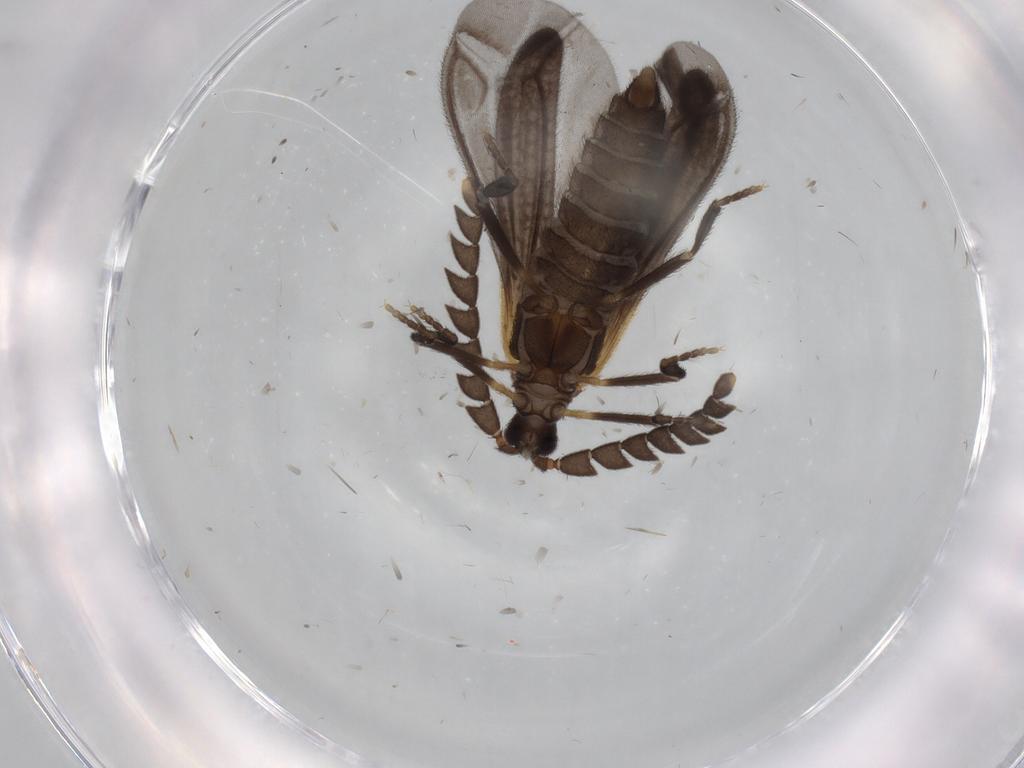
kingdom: Animalia
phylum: Arthropoda
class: Insecta
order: Coleoptera
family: Lycidae
